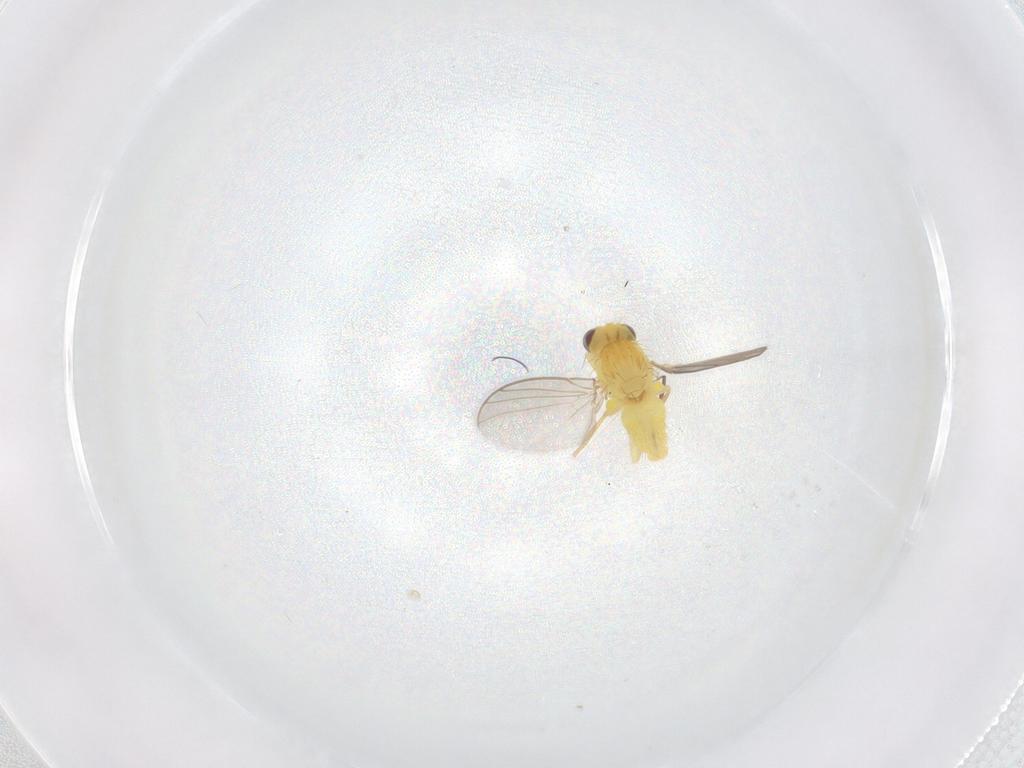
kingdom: Animalia
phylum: Arthropoda
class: Insecta
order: Diptera
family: Agromyzidae
